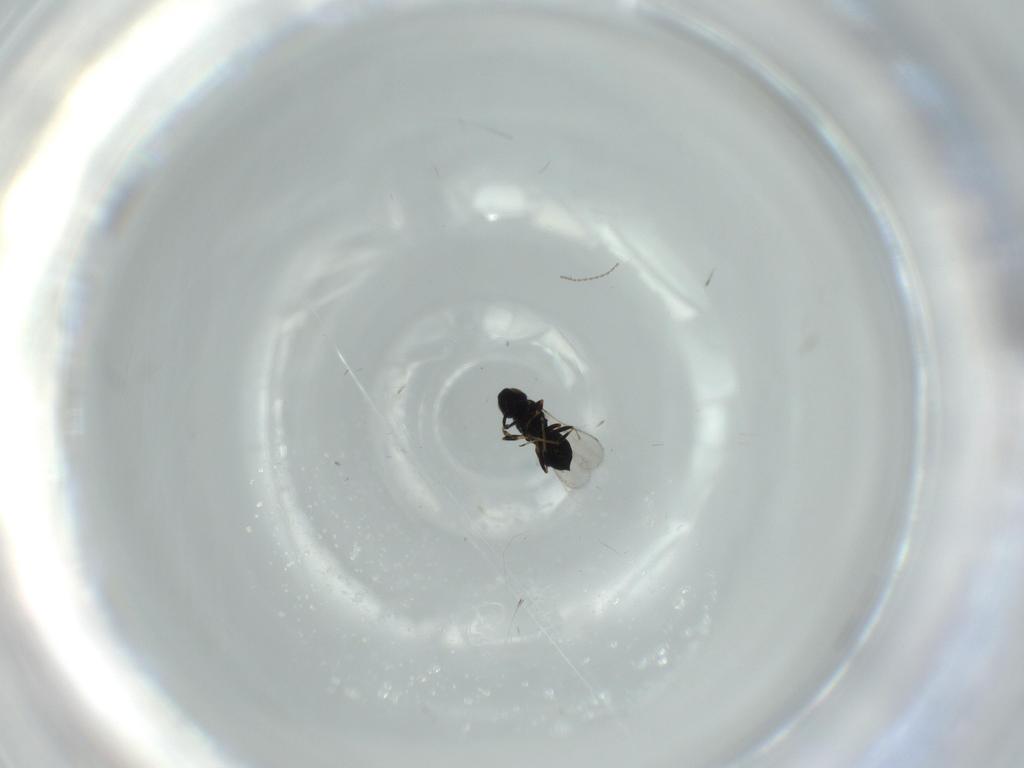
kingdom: Animalia
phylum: Arthropoda
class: Insecta
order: Hymenoptera
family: Scelionidae
